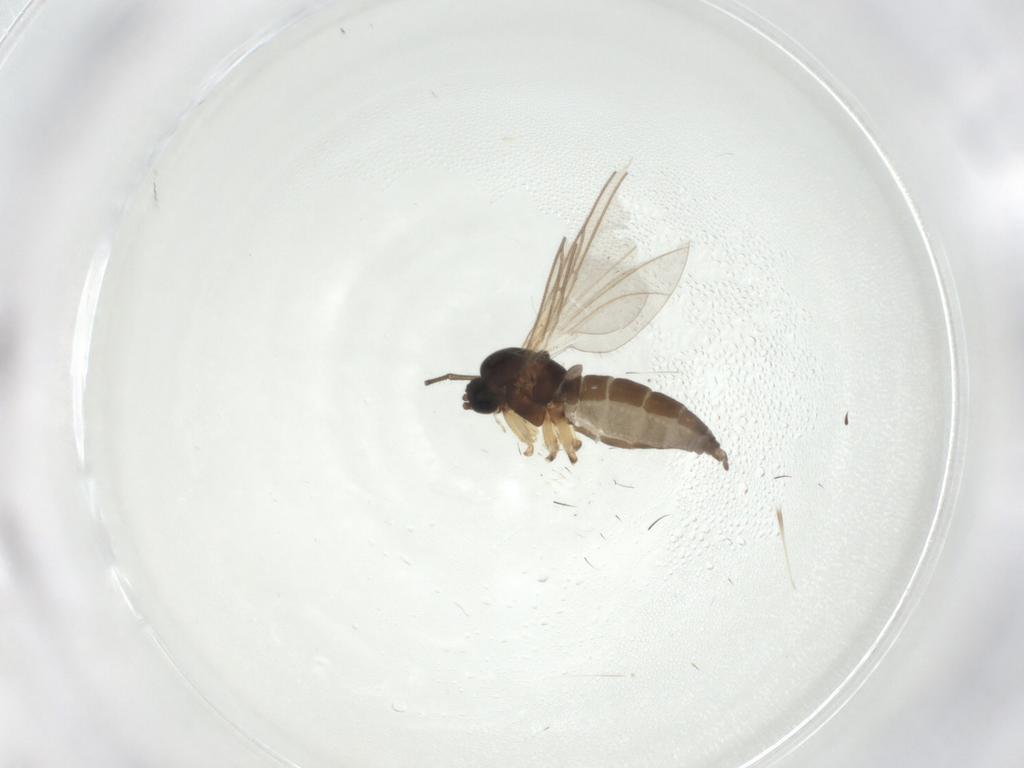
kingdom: Animalia
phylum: Arthropoda
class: Insecta
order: Diptera
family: Sciaridae
